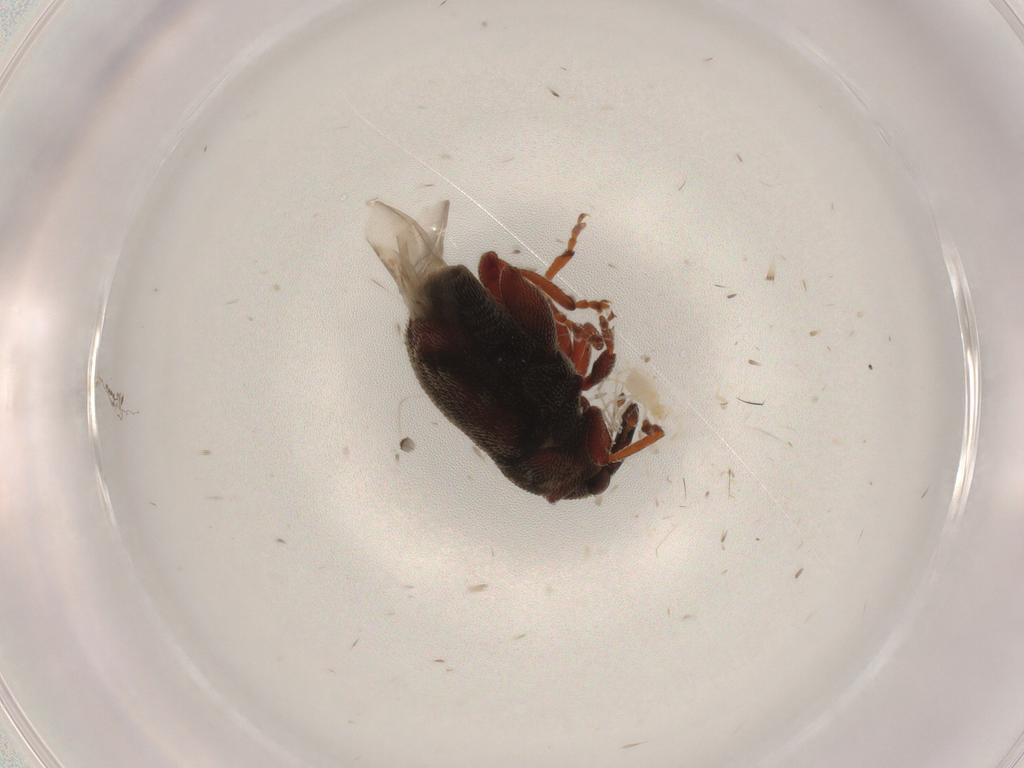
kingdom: Animalia
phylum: Arthropoda
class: Insecta
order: Coleoptera
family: Curculionidae
